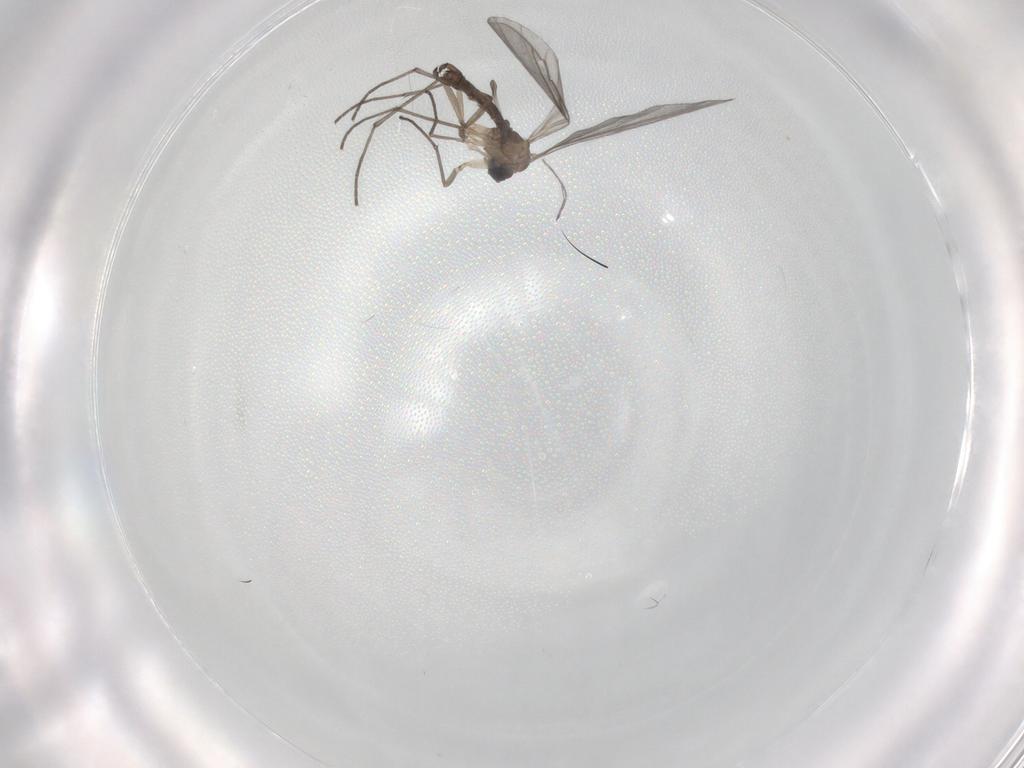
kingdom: Animalia
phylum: Arthropoda
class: Insecta
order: Diptera
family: Sciaridae
